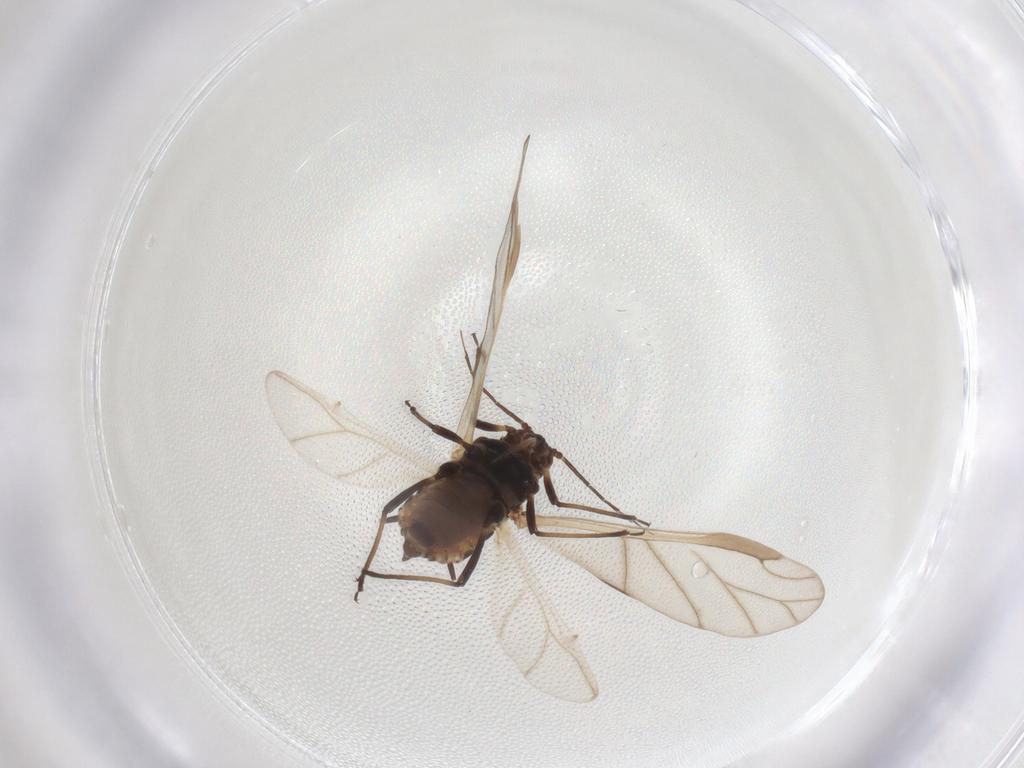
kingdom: Animalia
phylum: Arthropoda
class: Insecta
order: Hemiptera
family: Aphididae
